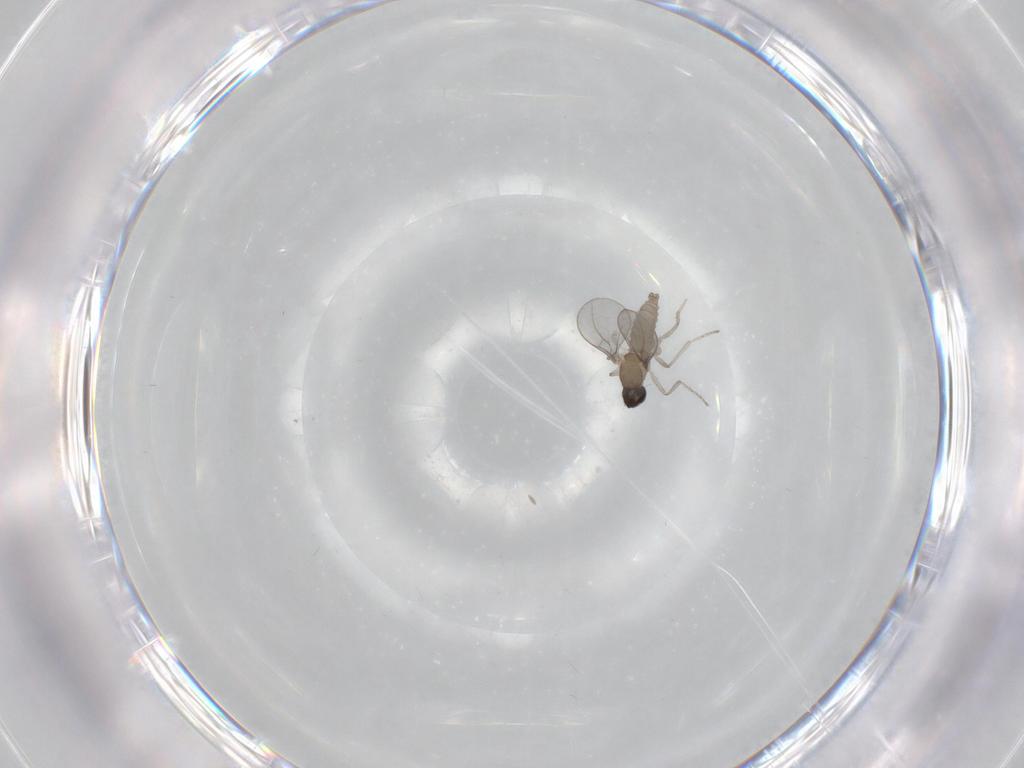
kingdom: Animalia
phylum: Arthropoda
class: Insecta
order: Diptera
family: Cecidomyiidae
